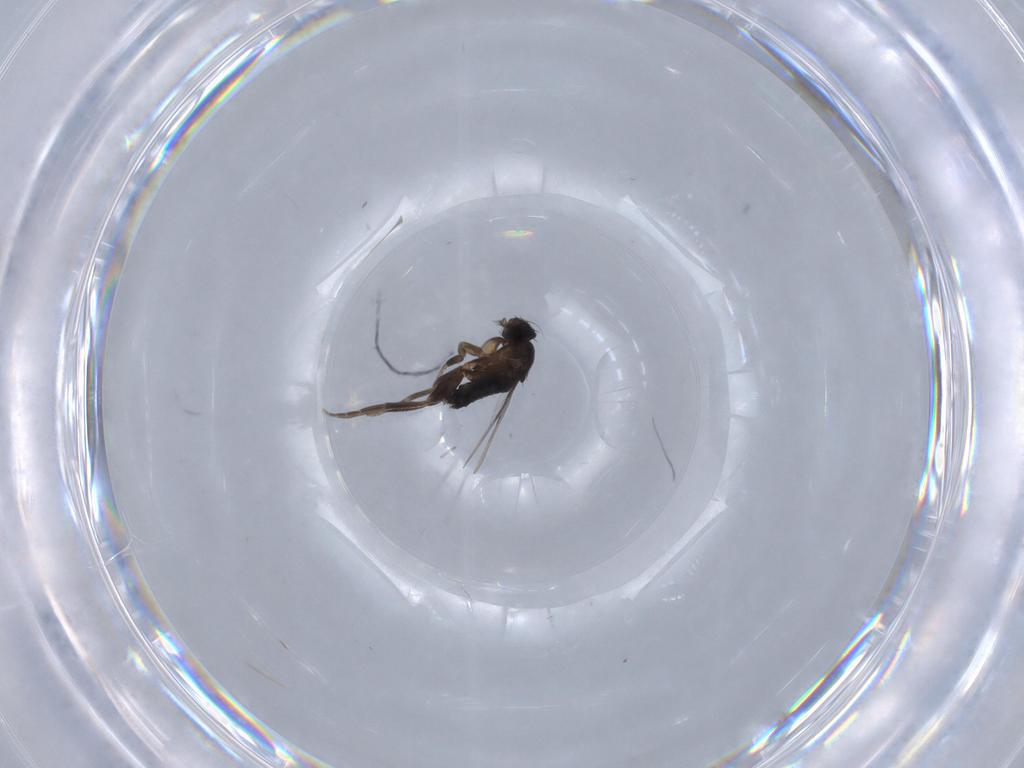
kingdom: Animalia
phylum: Arthropoda
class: Insecta
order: Diptera
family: Phoridae
